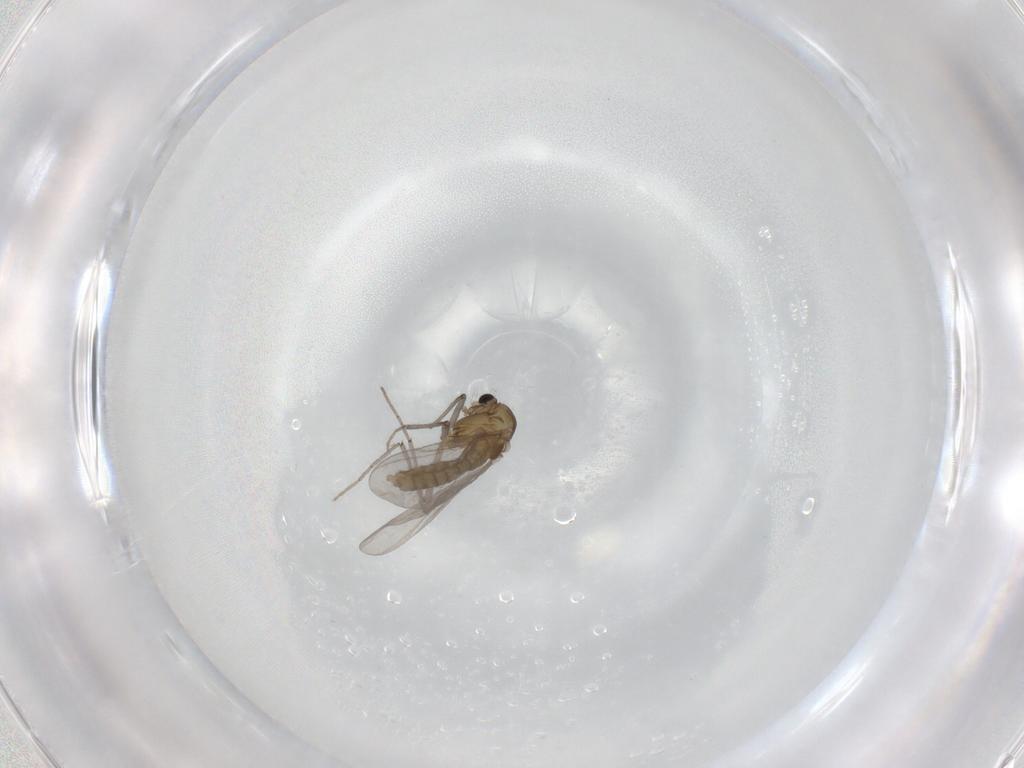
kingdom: Animalia
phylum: Arthropoda
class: Insecta
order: Diptera
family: Chironomidae
